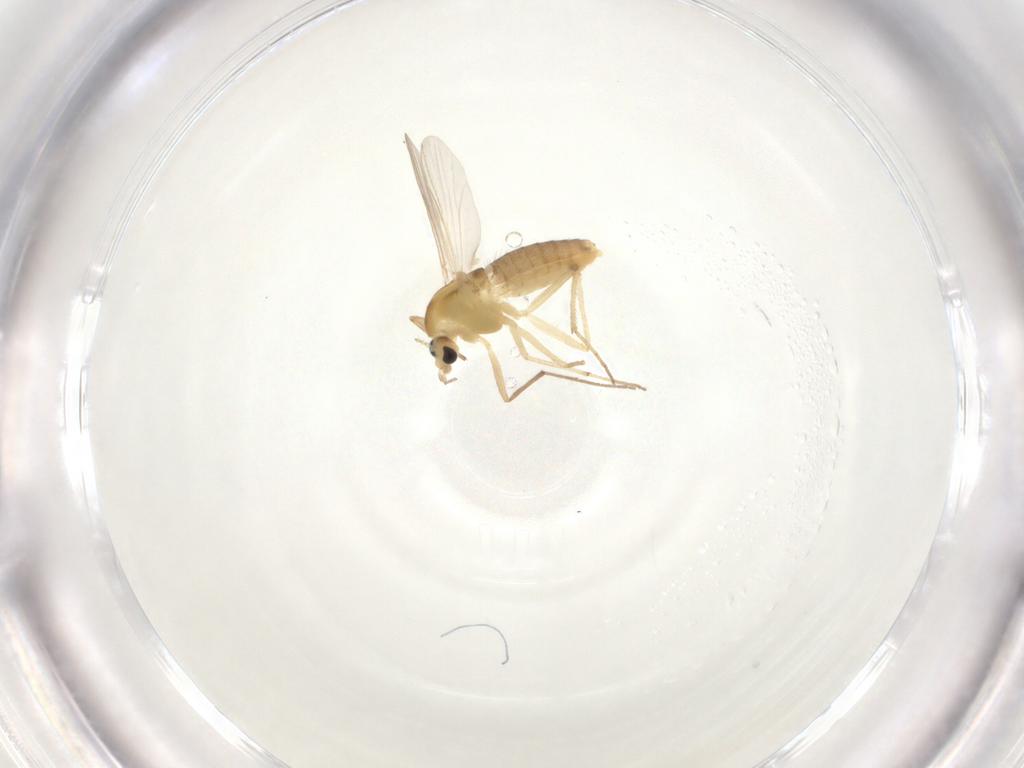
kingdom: Animalia
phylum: Arthropoda
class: Insecta
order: Diptera
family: Chironomidae
